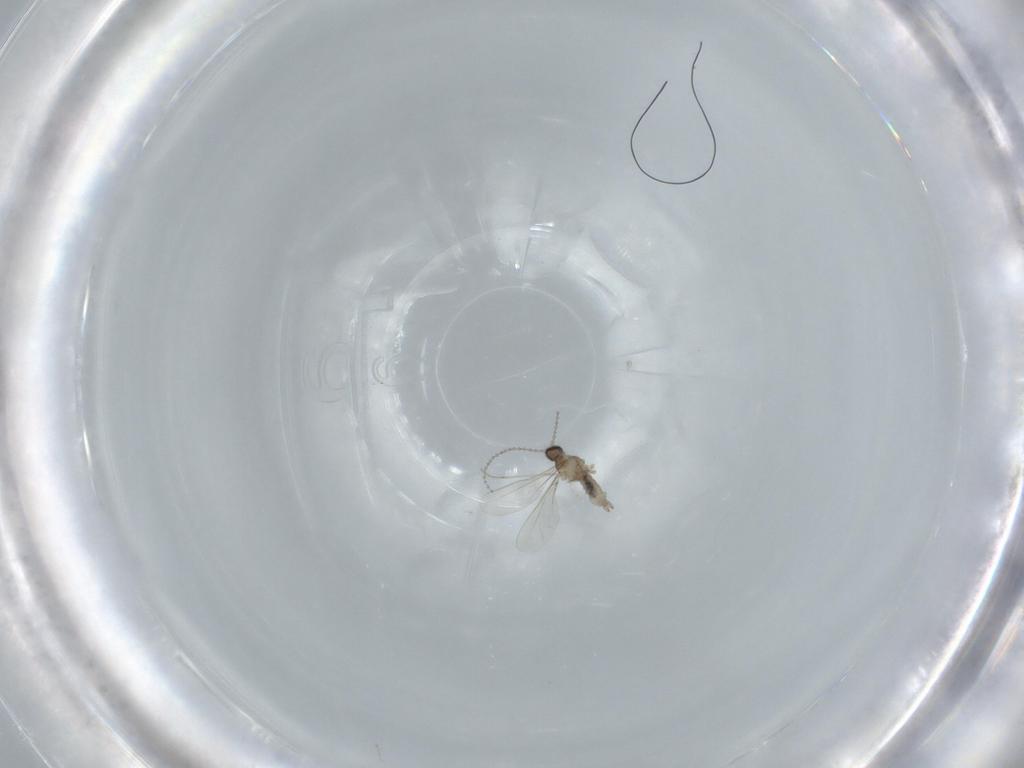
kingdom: Animalia
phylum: Arthropoda
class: Insecta
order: Diptera
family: Cecidomyiidae
